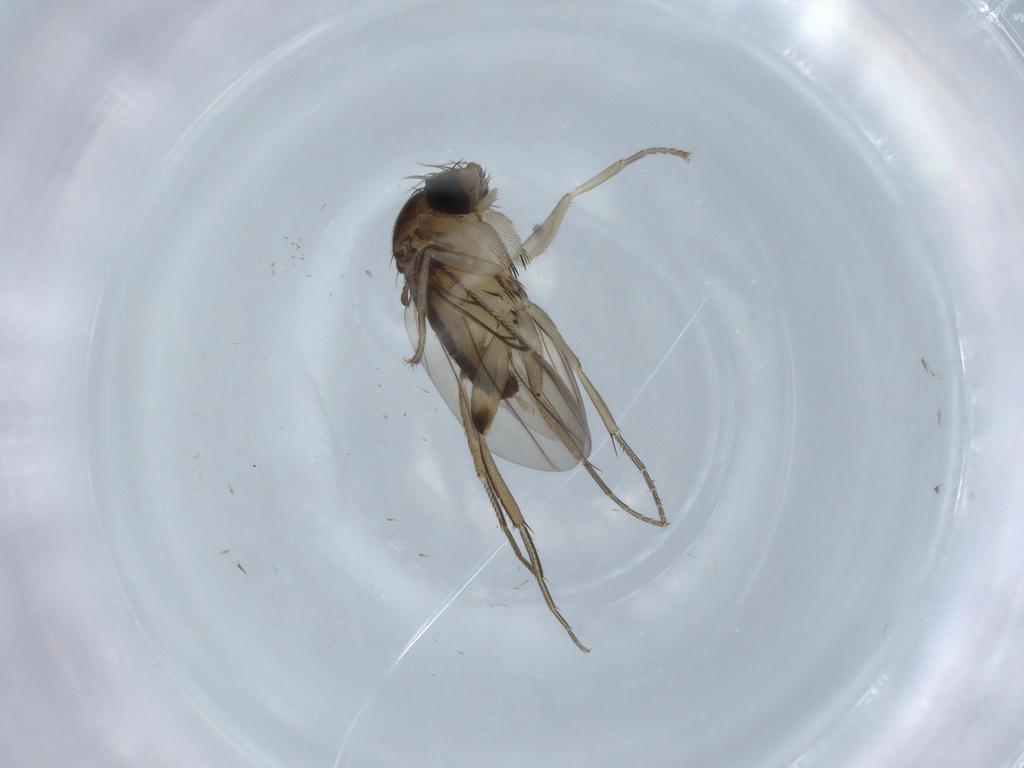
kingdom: Animalia
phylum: Arthropoda
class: Insecta
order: Diptera
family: Phoridae
